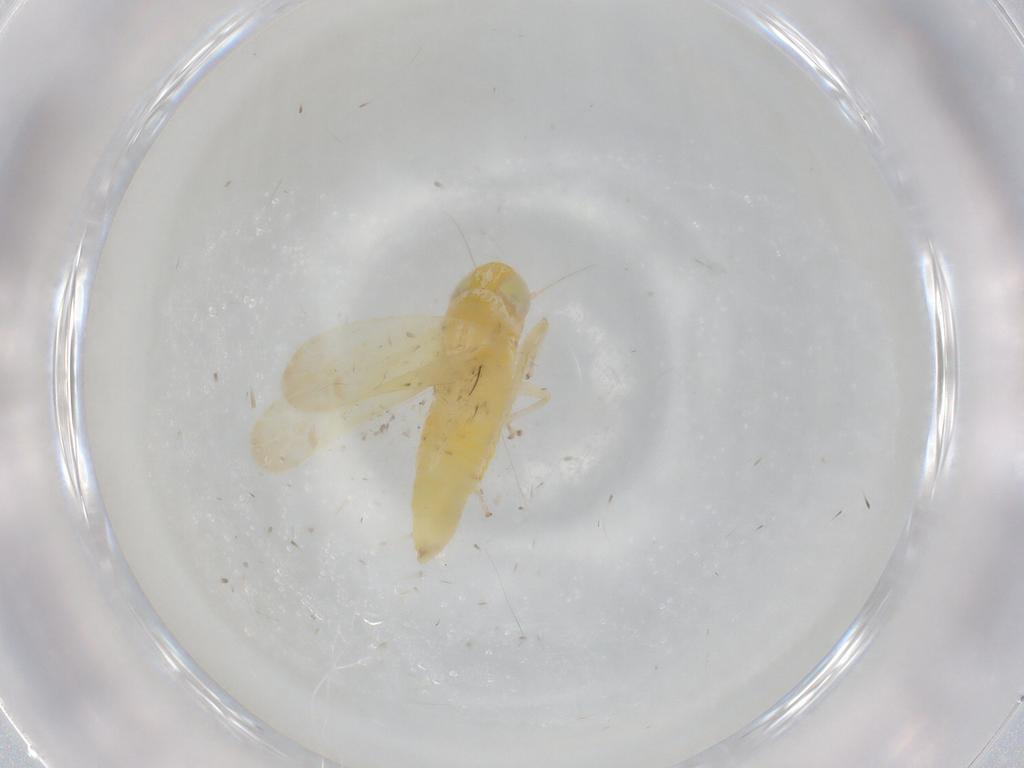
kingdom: Animalia
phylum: Arthropoda
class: Insecta
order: Hemiptera
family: Cicadellidae
